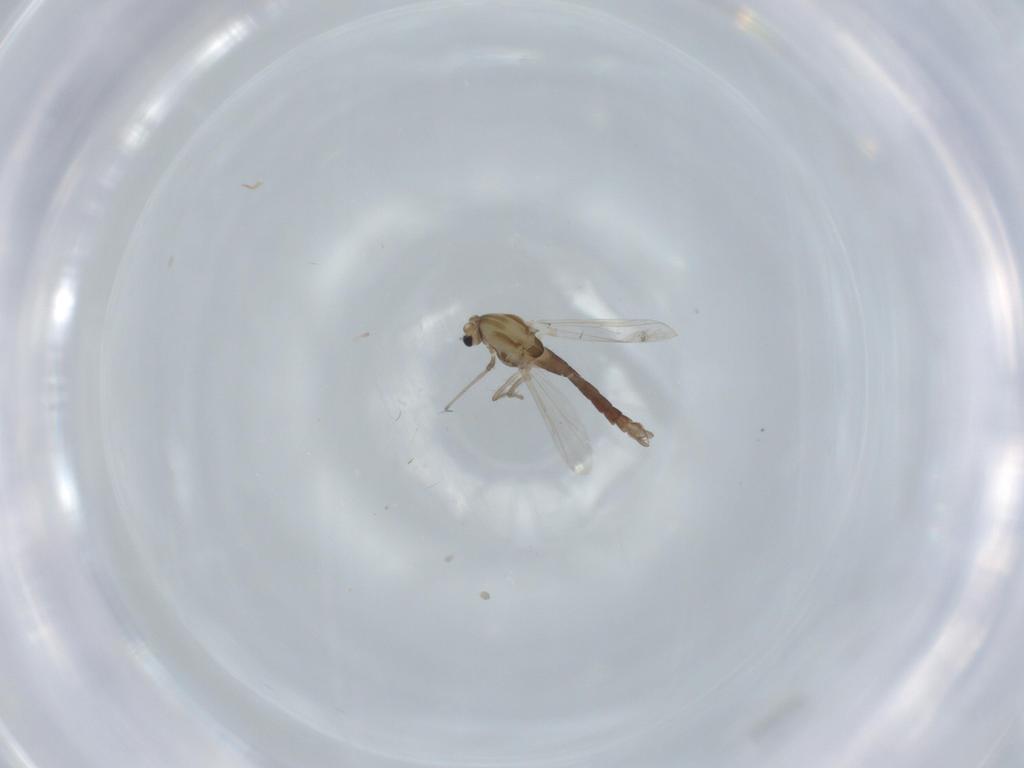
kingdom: Animalia
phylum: Arthropoda
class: Insecta
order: Diptera
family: Chironomidae
